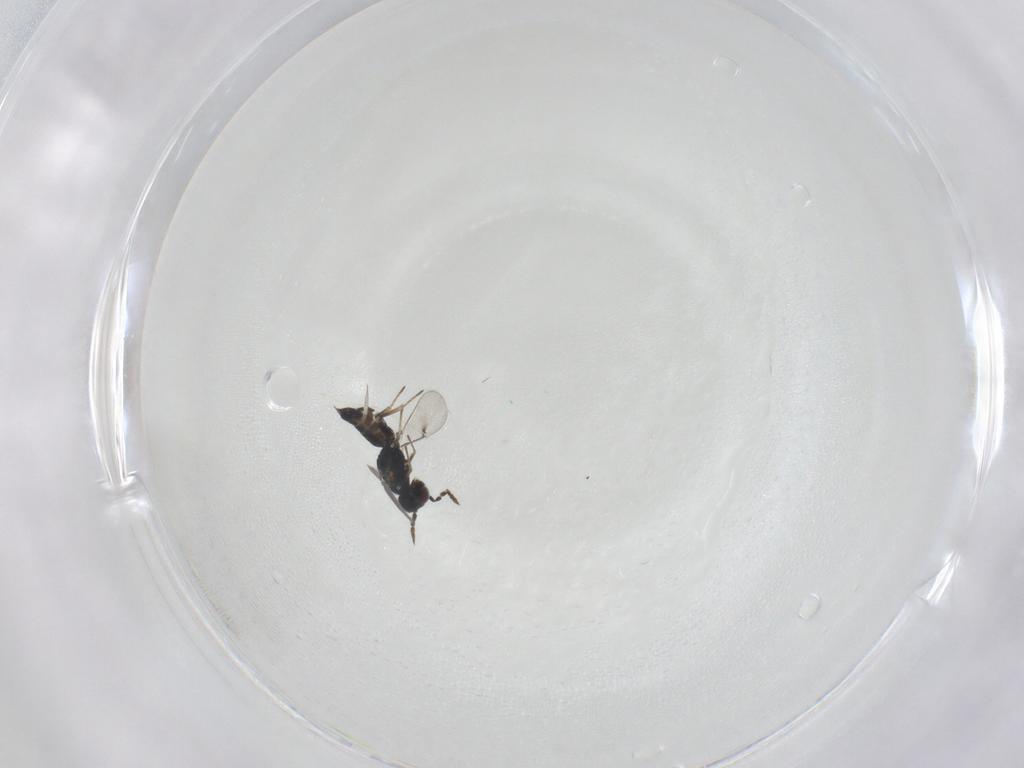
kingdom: Animalia
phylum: Arthropoda
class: Insecta
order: Hymenoptera
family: Eulophidae
